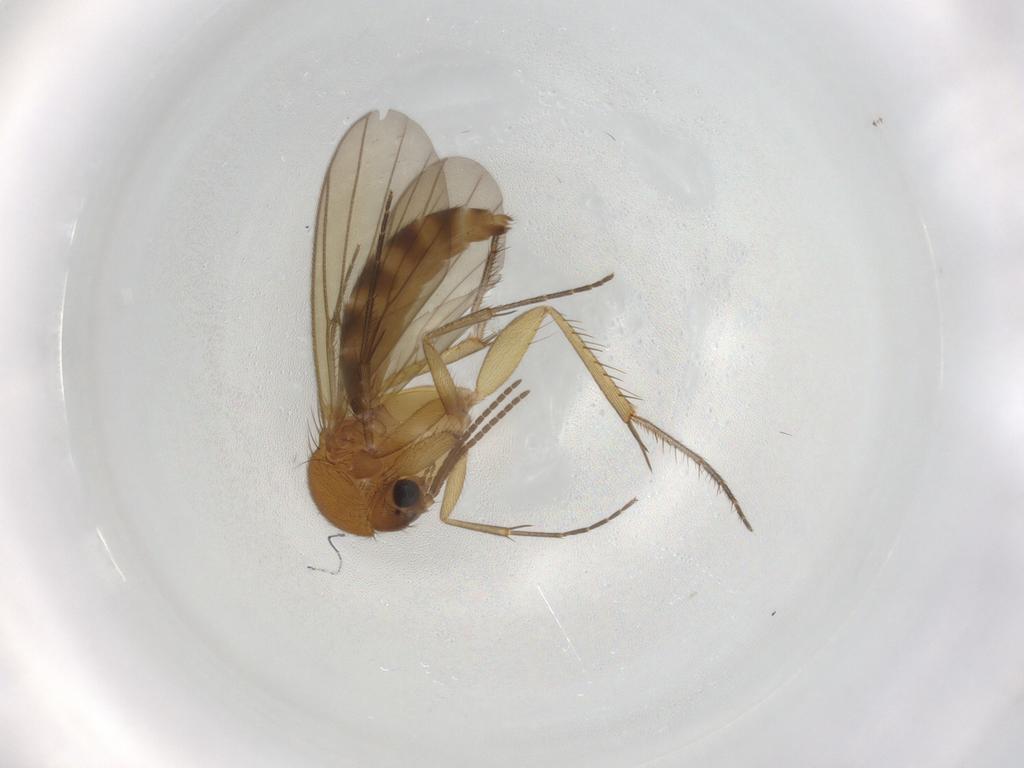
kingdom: Animalia
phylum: Arthropoda
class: Insecta
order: Diptera
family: Mycetophilidae
